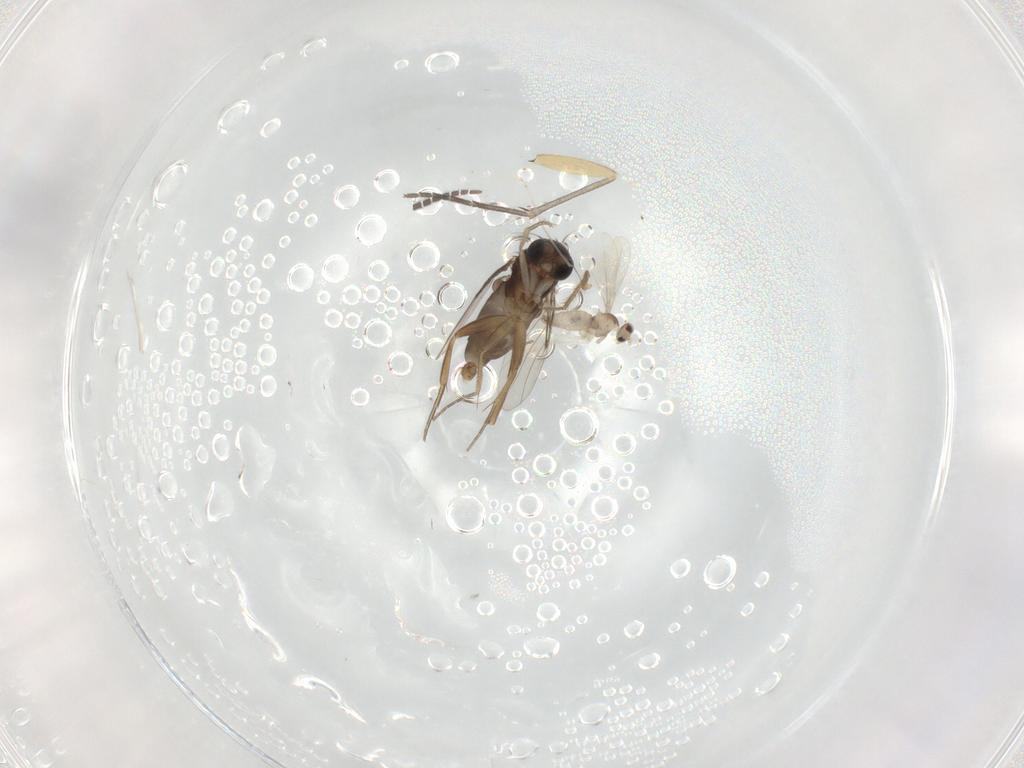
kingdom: Animalia
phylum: Arthropoda
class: Insecta
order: Diptera
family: Phoridae
